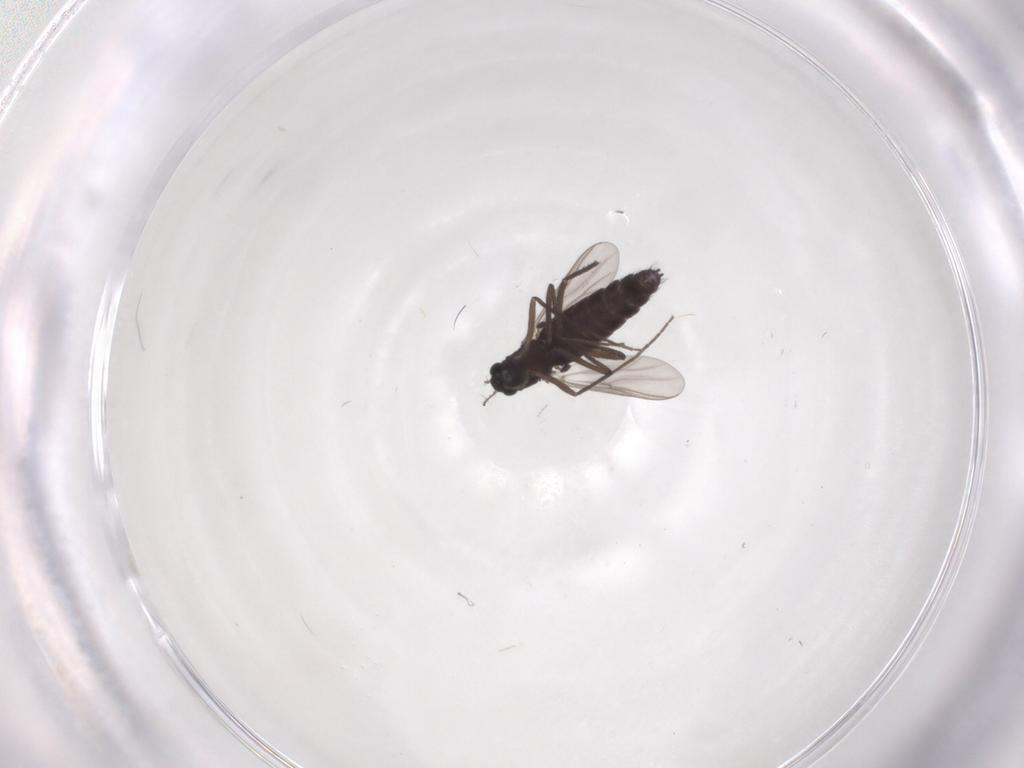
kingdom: Animalia
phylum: Arthropoda
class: Insecta
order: Diptera
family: Chironomidae
